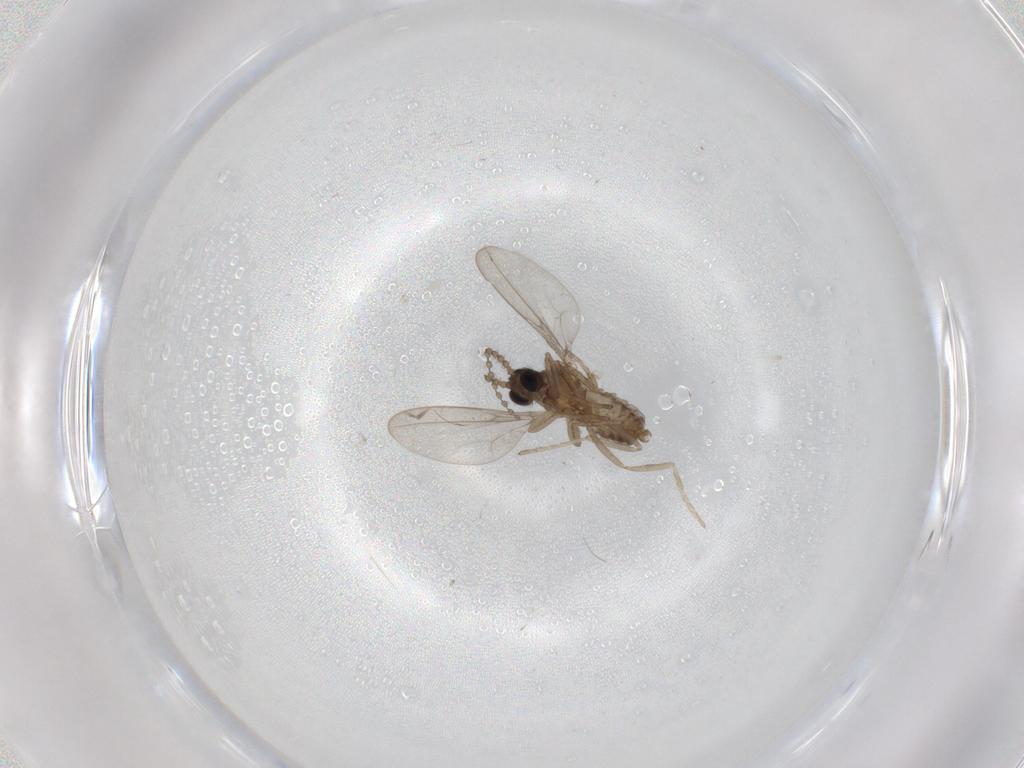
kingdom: Animalia
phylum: Arthropoda
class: Insecta
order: Diptera
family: Cecidomyiidae
